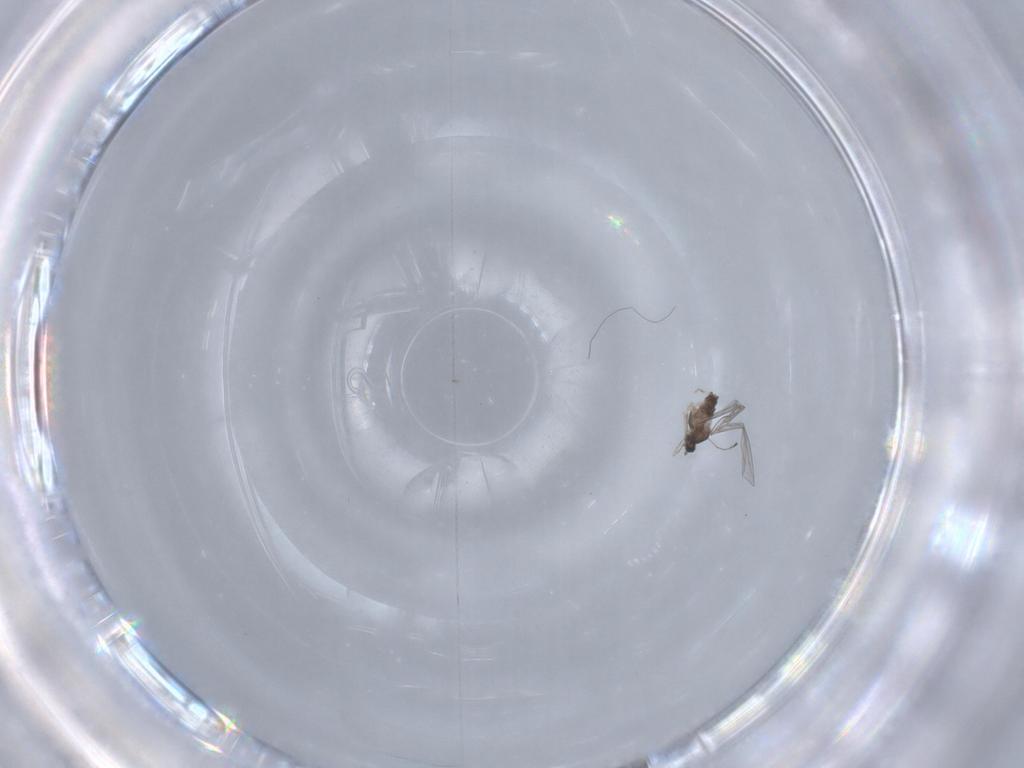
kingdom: Animalia
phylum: Arthropoda
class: Insecta
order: Diptera
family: Cecidomyiidae
